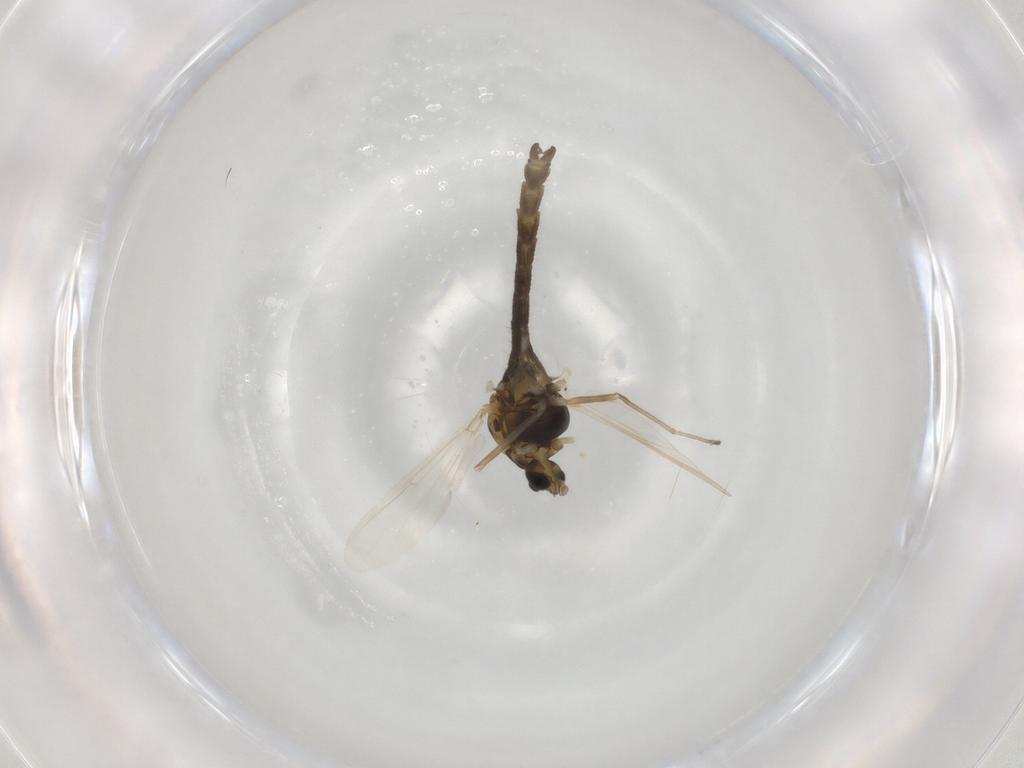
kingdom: Animalia
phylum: Arthropoda
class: Insecta
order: Diptera
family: Chironomidae
